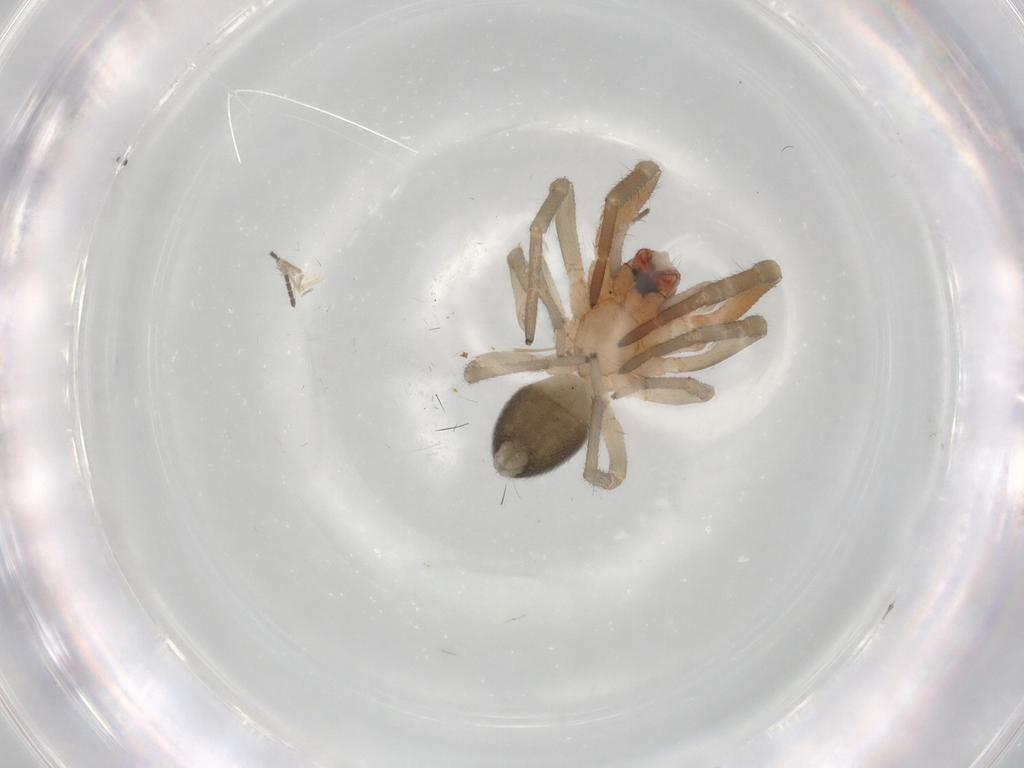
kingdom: Animalia
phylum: Arthropoda
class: Arachnida
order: Araneae
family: Trachelidae
